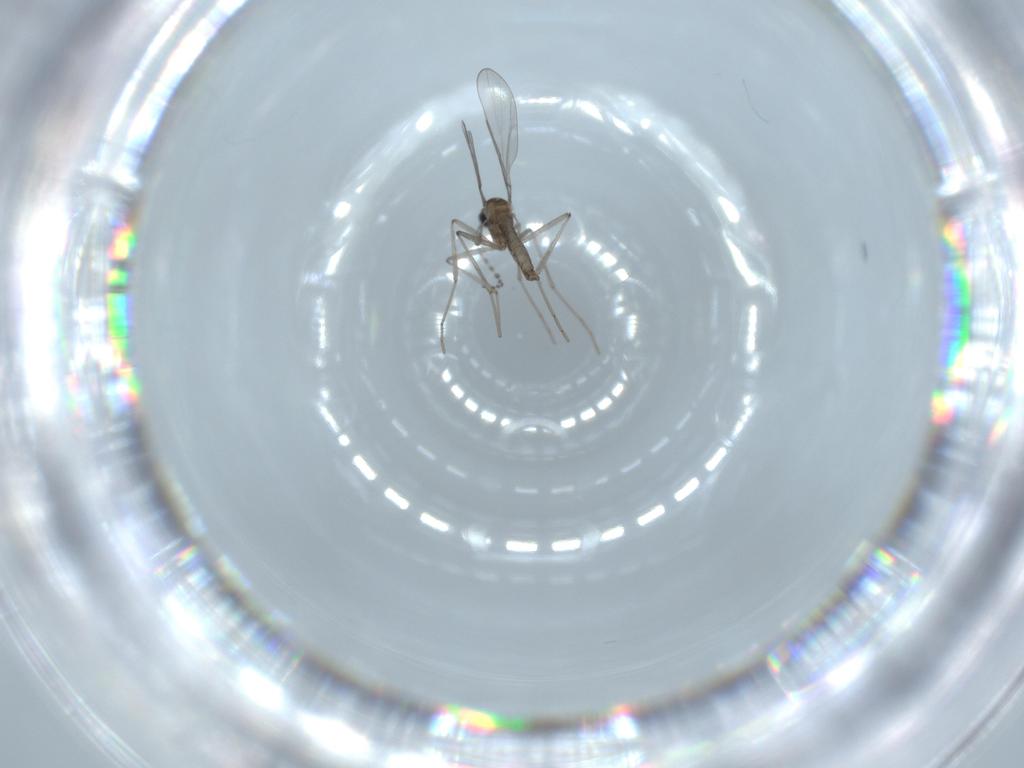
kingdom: Animalia
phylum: Arthropoda
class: Insecta
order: Diptera
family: Cecidomyiidae
